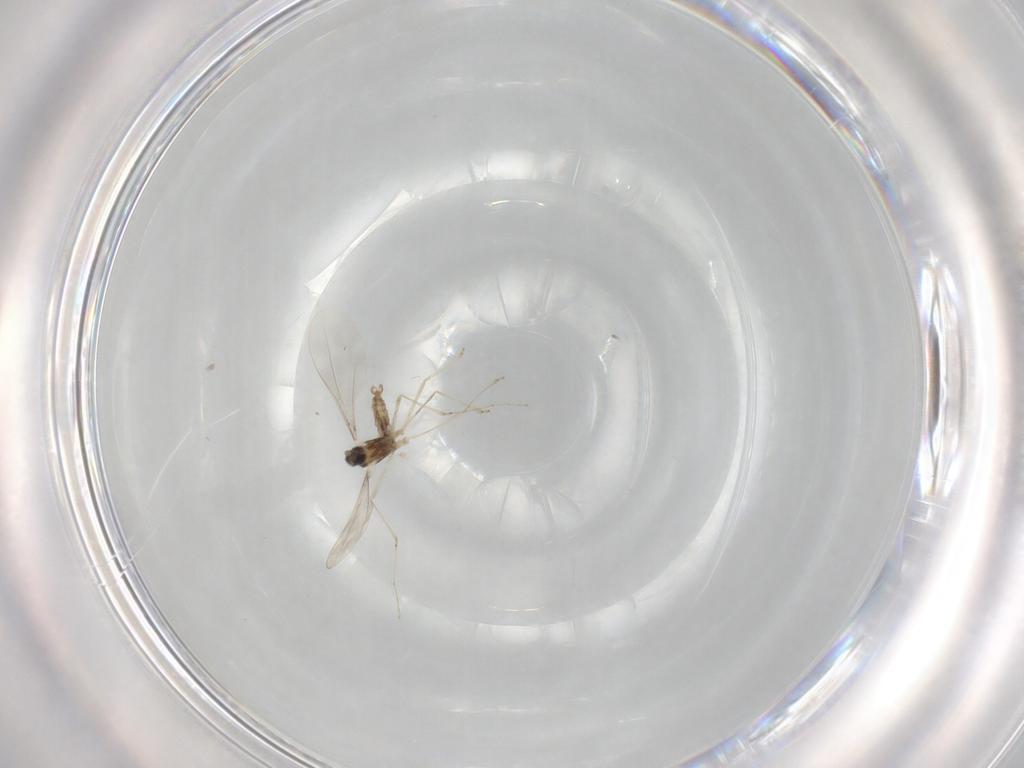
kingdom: Animalia
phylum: Arthropoda
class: Insecta
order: Diptera
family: Cecidomyiidae
